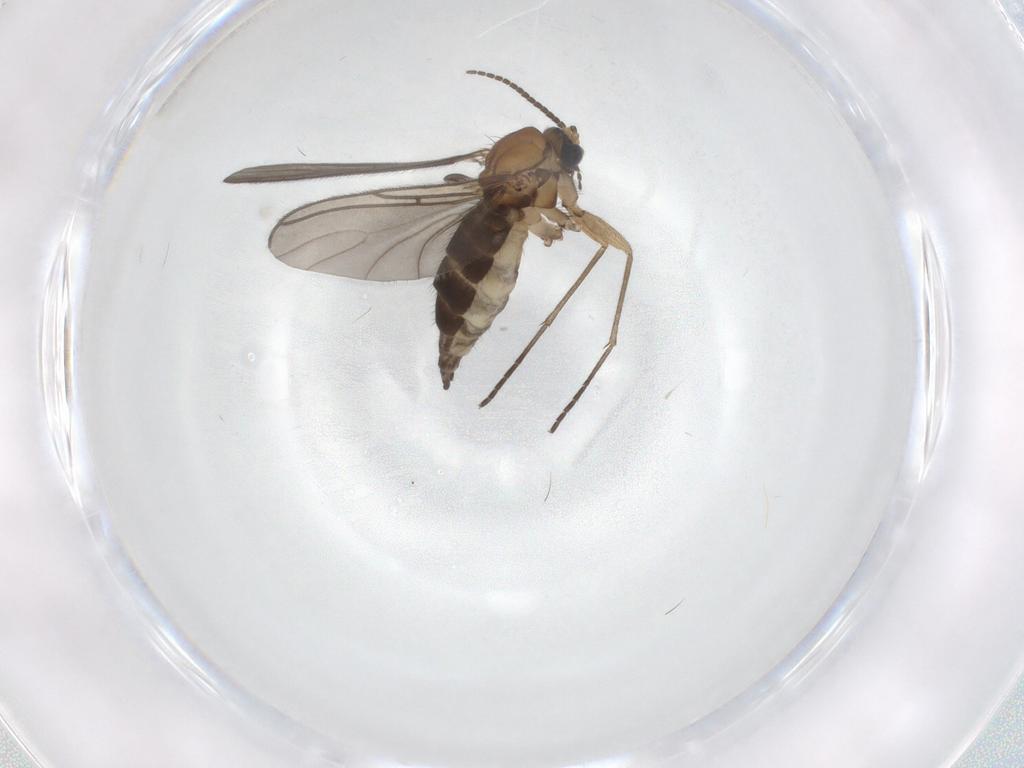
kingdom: Animalia
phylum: Arthropoda
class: Insecta
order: Diptera
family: Sciaridae
